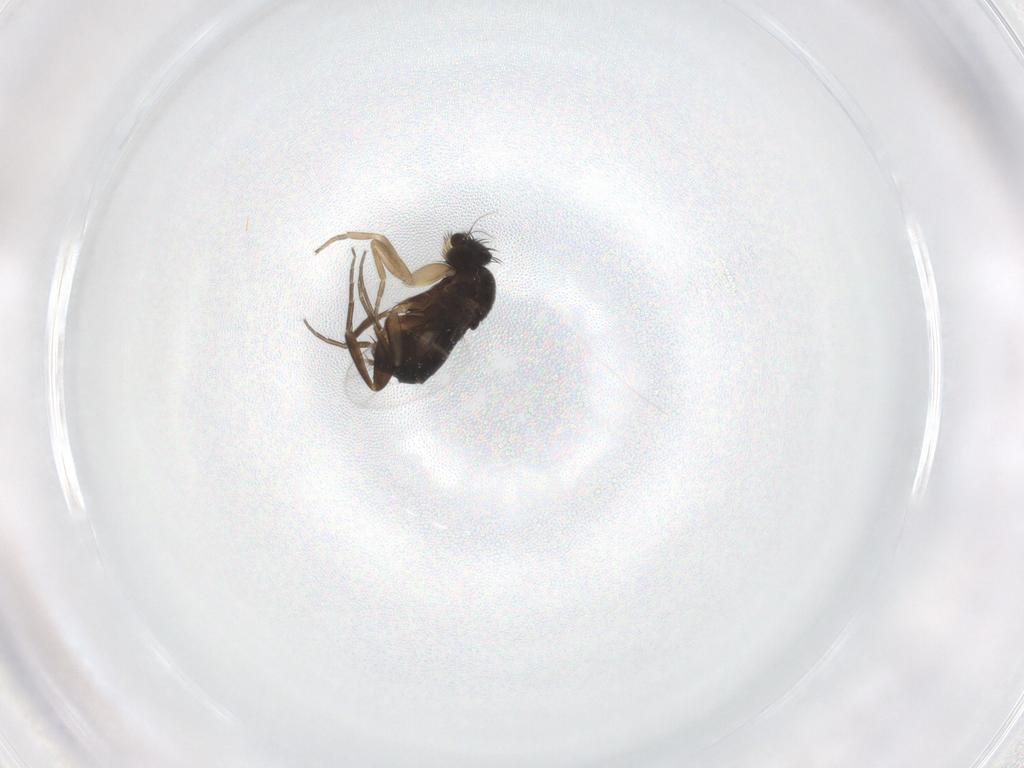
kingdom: Animalia
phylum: Arthropoda
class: Insecta
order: Diptera
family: Phoridae
